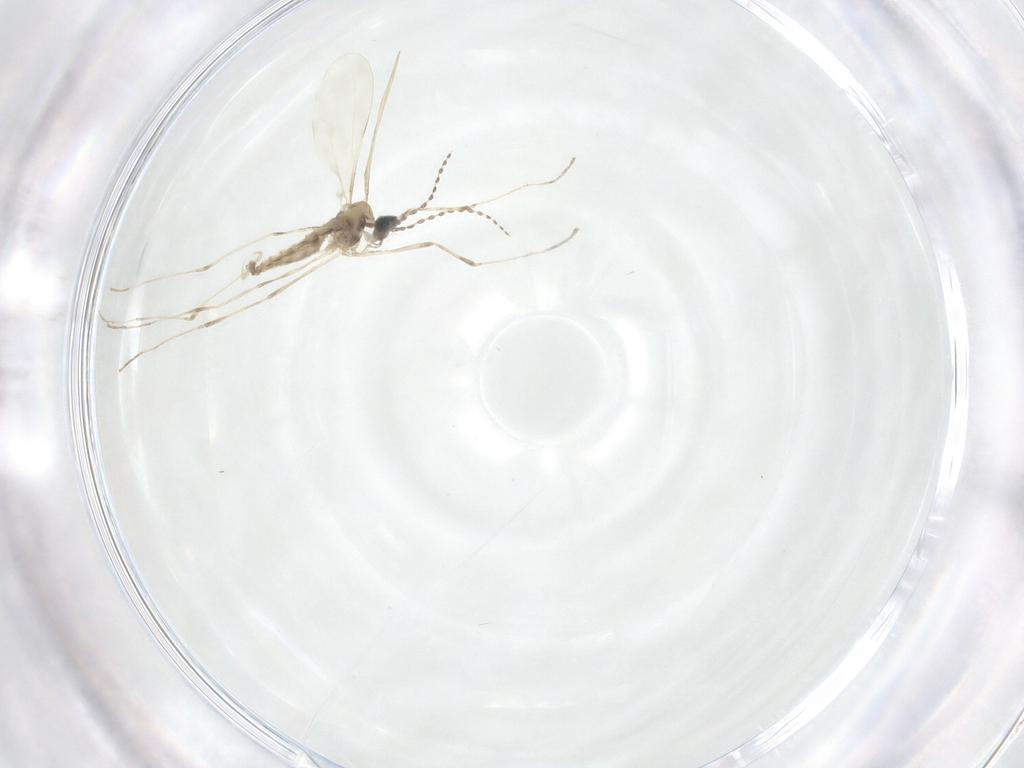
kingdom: Animalia
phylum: Arthropoda
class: Insecta
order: Diptera
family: Cecidomyiidae
